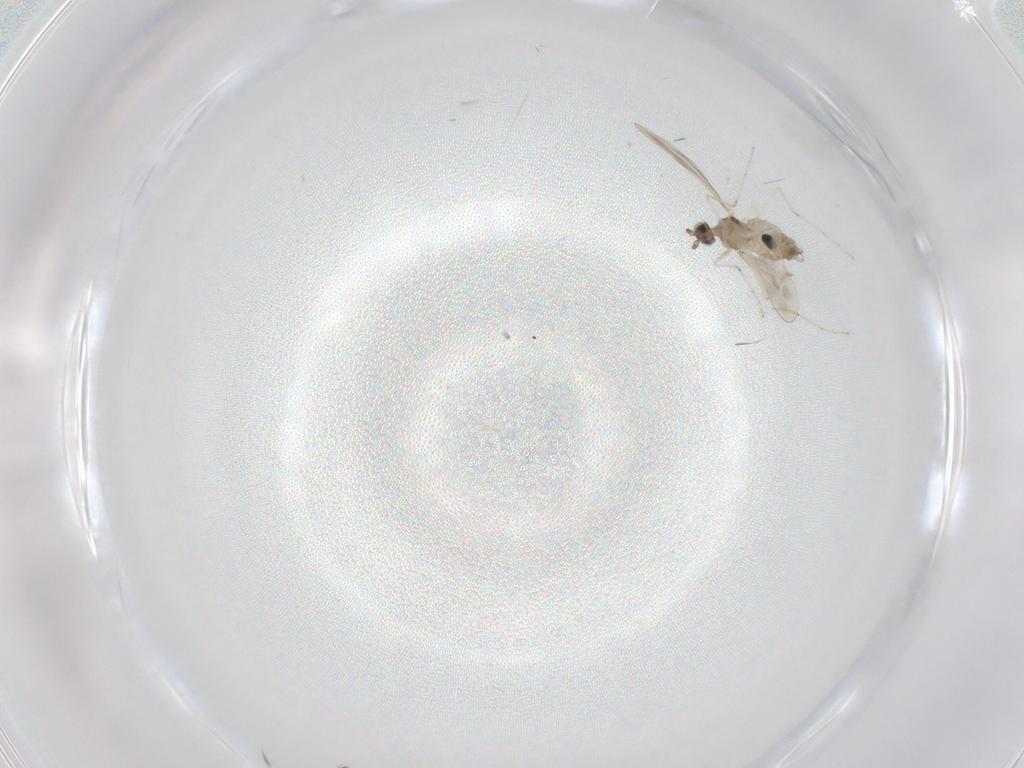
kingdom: Animalia
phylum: Arthropoda
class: Insecta
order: Diptera
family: Cecidomyiidae
